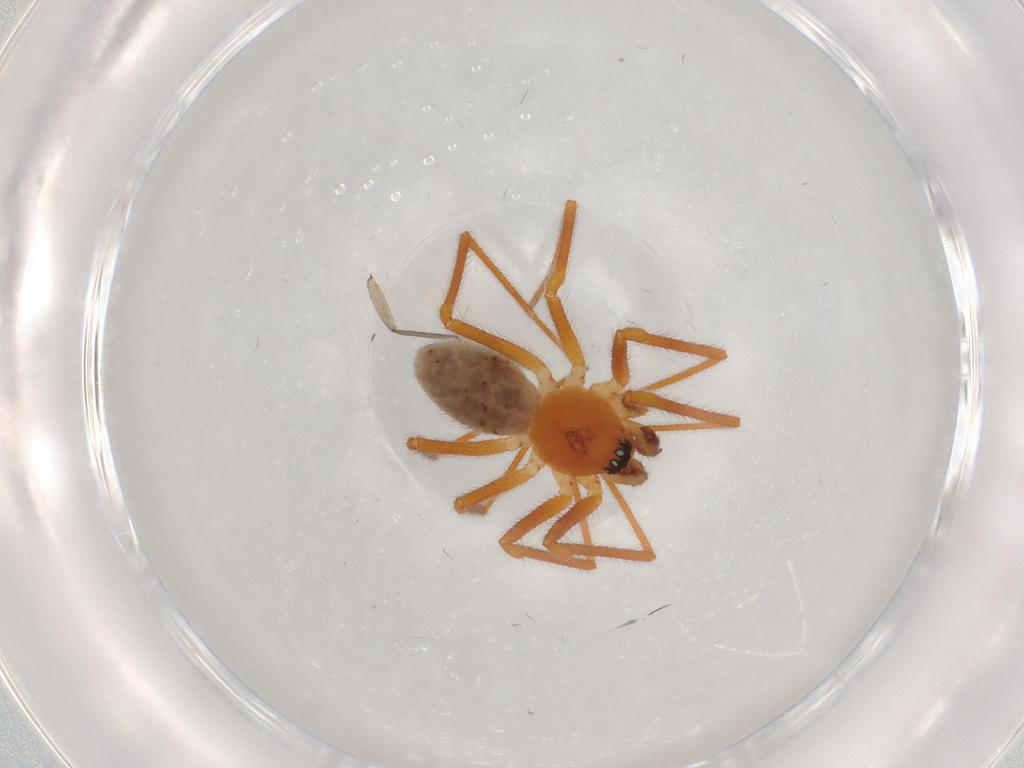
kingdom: Animalia
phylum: Arthropoda
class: Arachnida
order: Araneae
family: Linyphiidae
